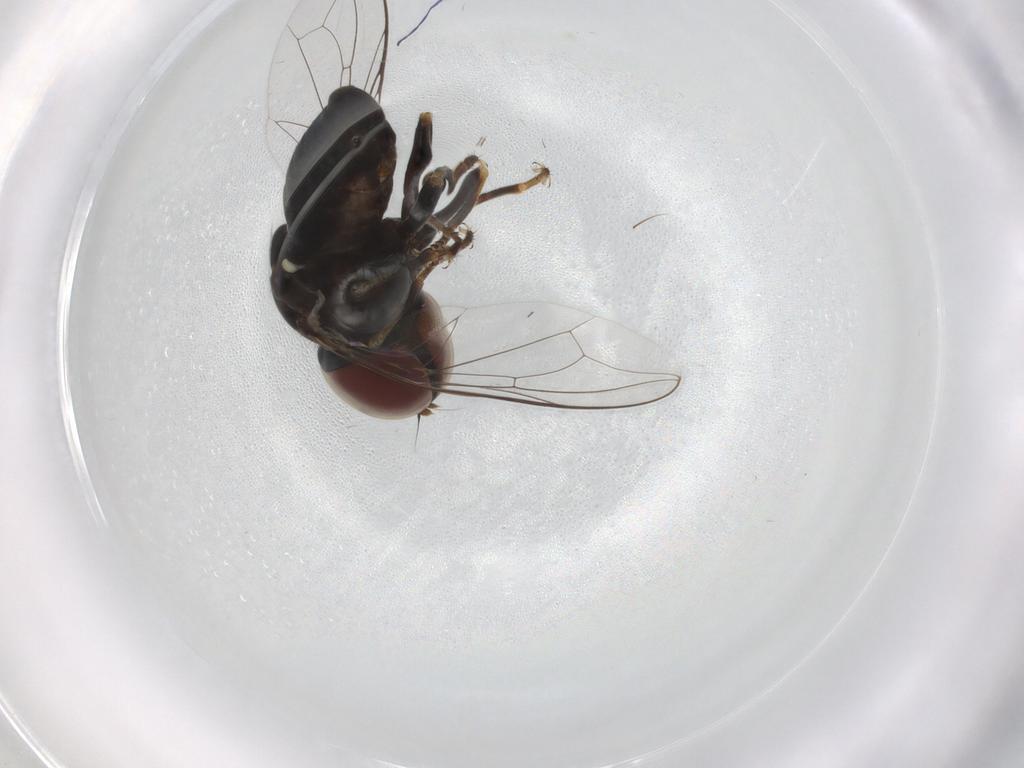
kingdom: Animalia
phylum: Arthropoda
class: Insecta
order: Diptera
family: Pipunculidae
